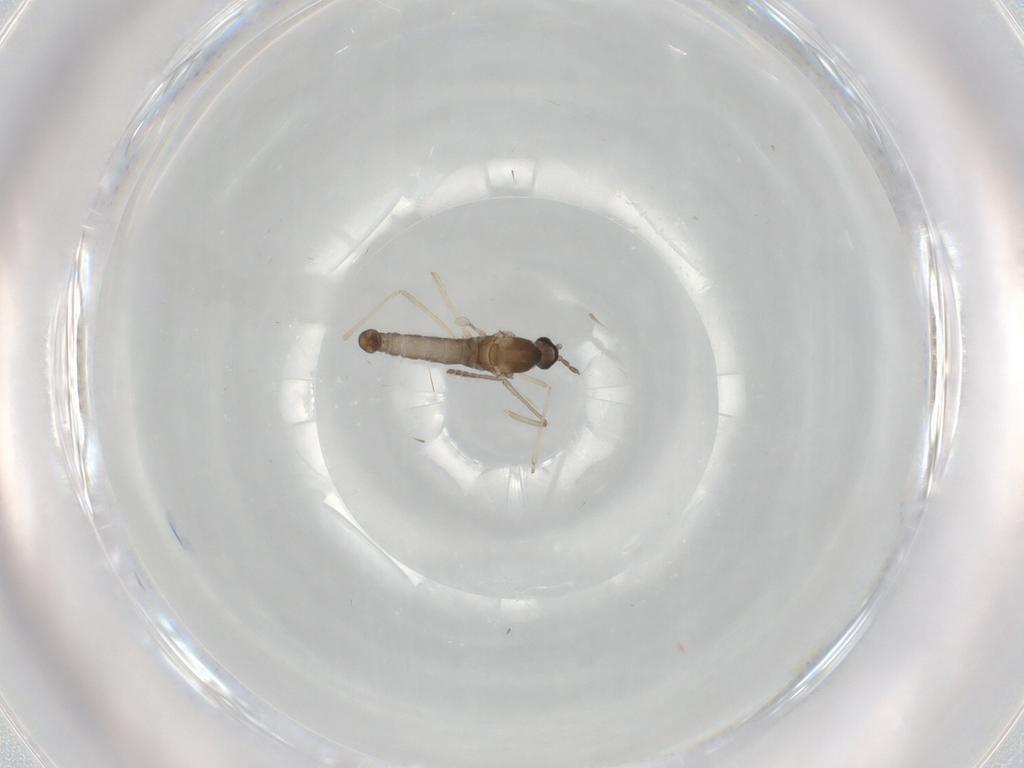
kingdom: Animalia
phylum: Arthropoda
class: Insecta
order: Diptera
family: Cecidomyiidae
